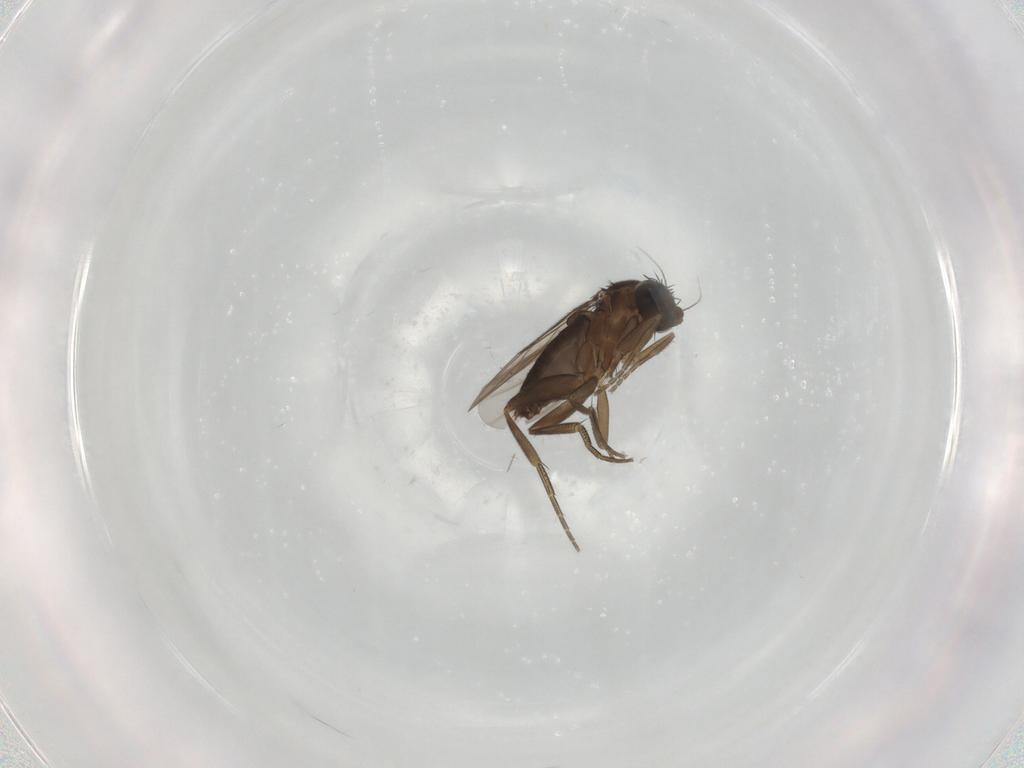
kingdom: Animalia
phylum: Arthropoda
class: Insecta
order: Diptera
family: Phoridae
